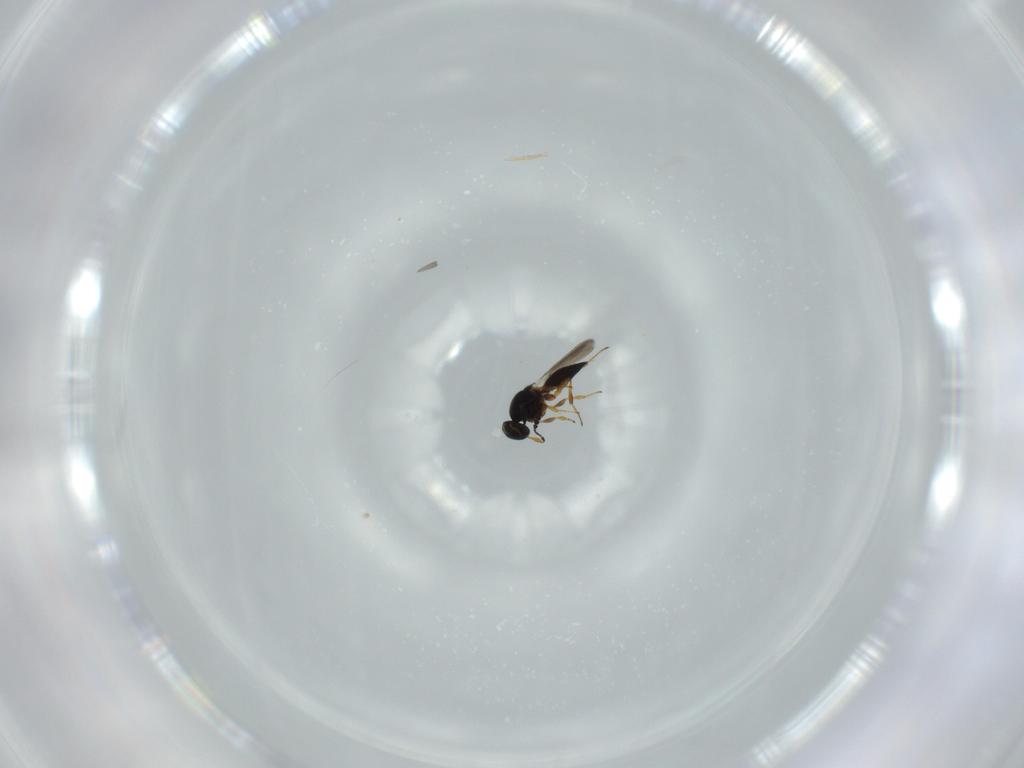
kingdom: Animalia
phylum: Arthropoda
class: Insecta
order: Hymenoptera
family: Platygastridae
